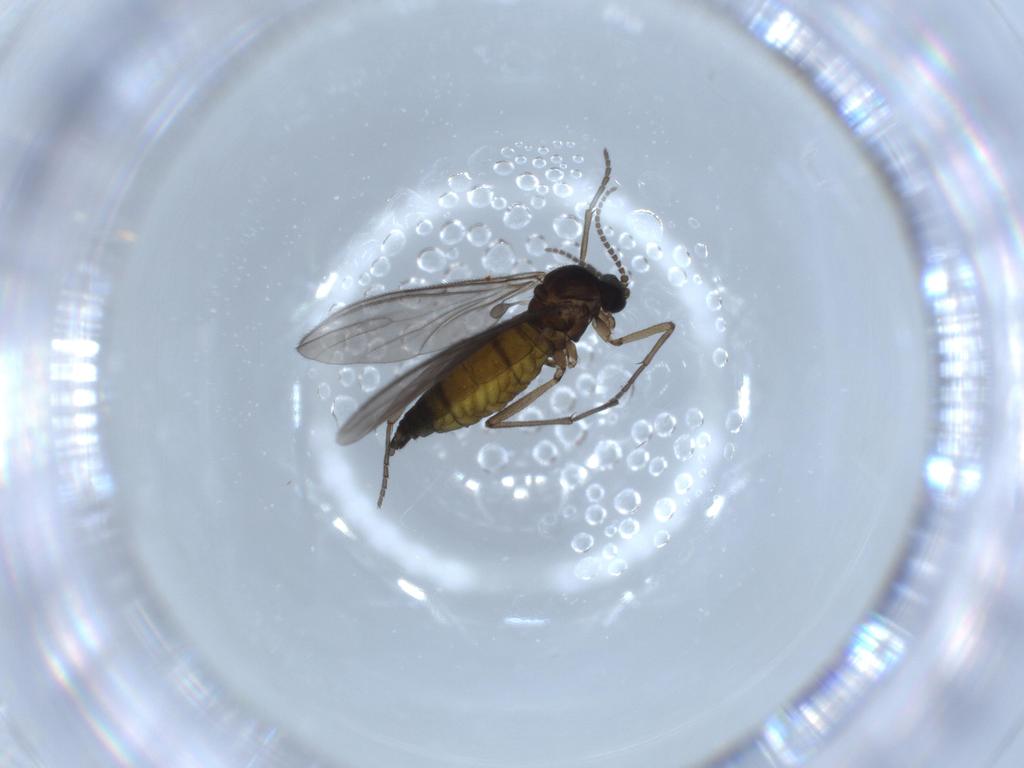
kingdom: Animalia
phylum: Arthropoda
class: Insecta
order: Diptera
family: Sciaridae
